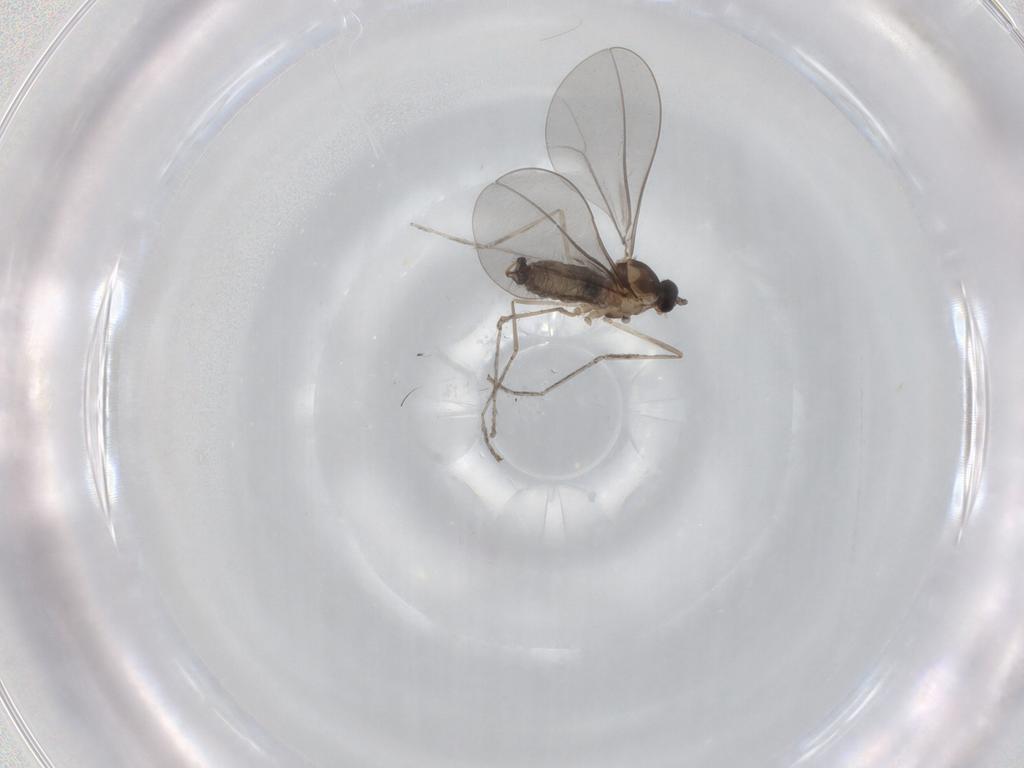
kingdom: Animalia
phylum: Arthropoda
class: Insecta
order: Diptera
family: Cecidomyiidae
